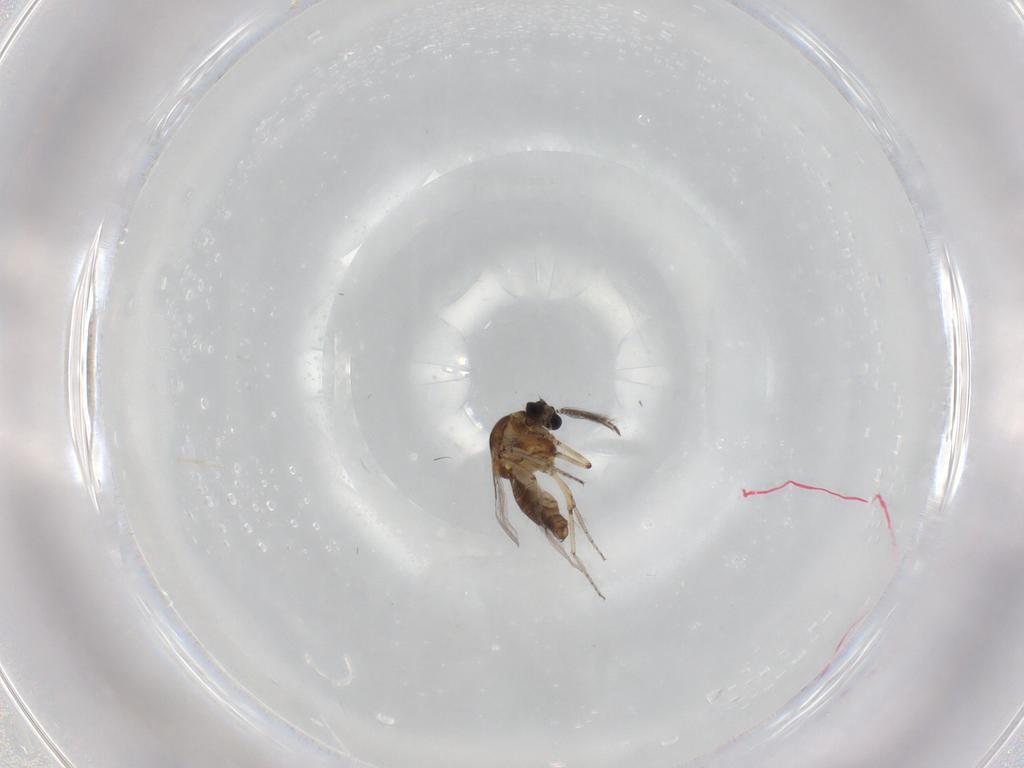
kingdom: Animalia
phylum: Arthropoda
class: Insecta
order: Diptera
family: Ceratopogonidae
